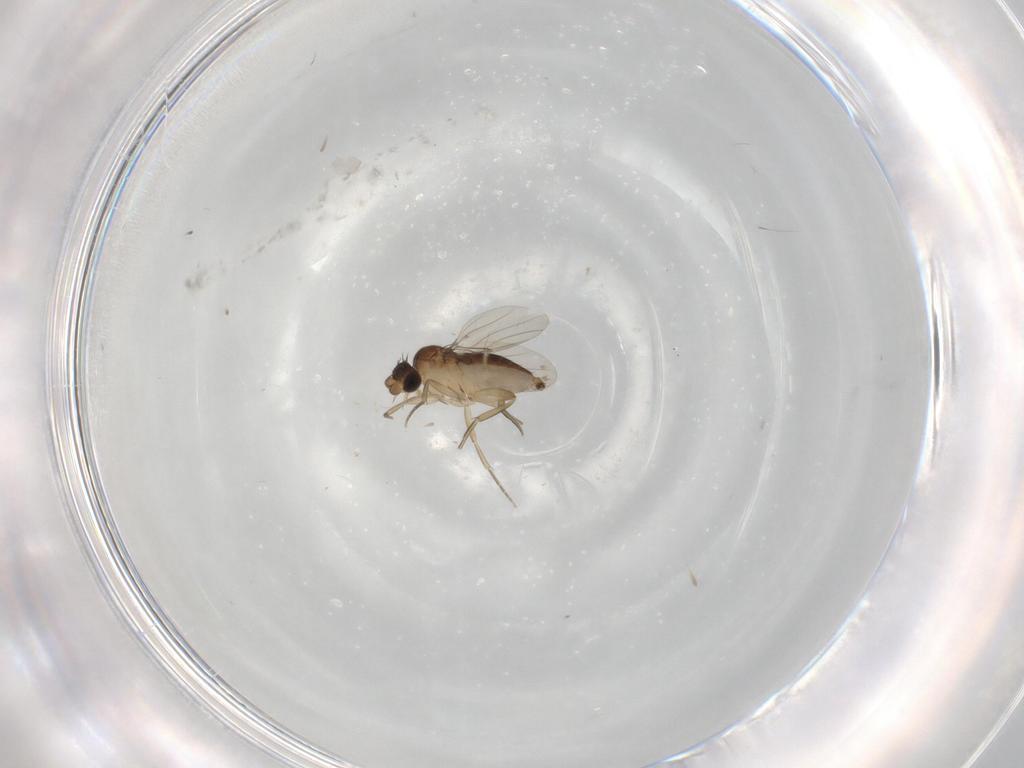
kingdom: Animalia
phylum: Arthropoda
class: Insecta
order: Diptera
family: Phoridae
